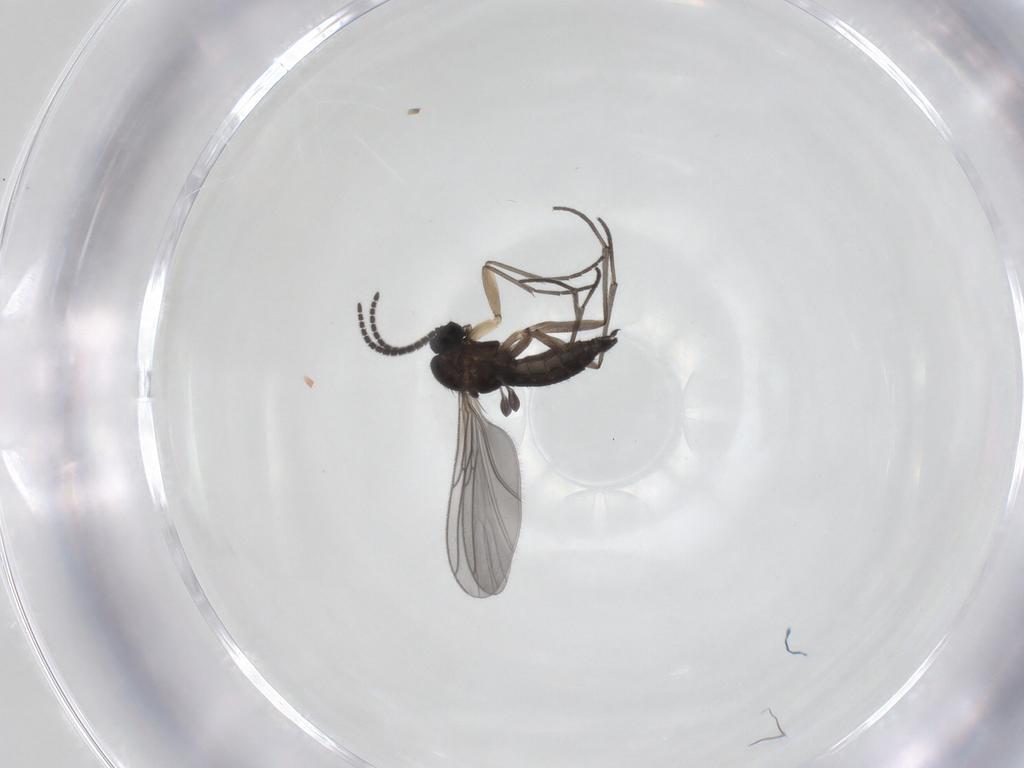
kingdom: Animalia
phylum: Arthropoda
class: Insecta
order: Diptera
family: Sciaridae
